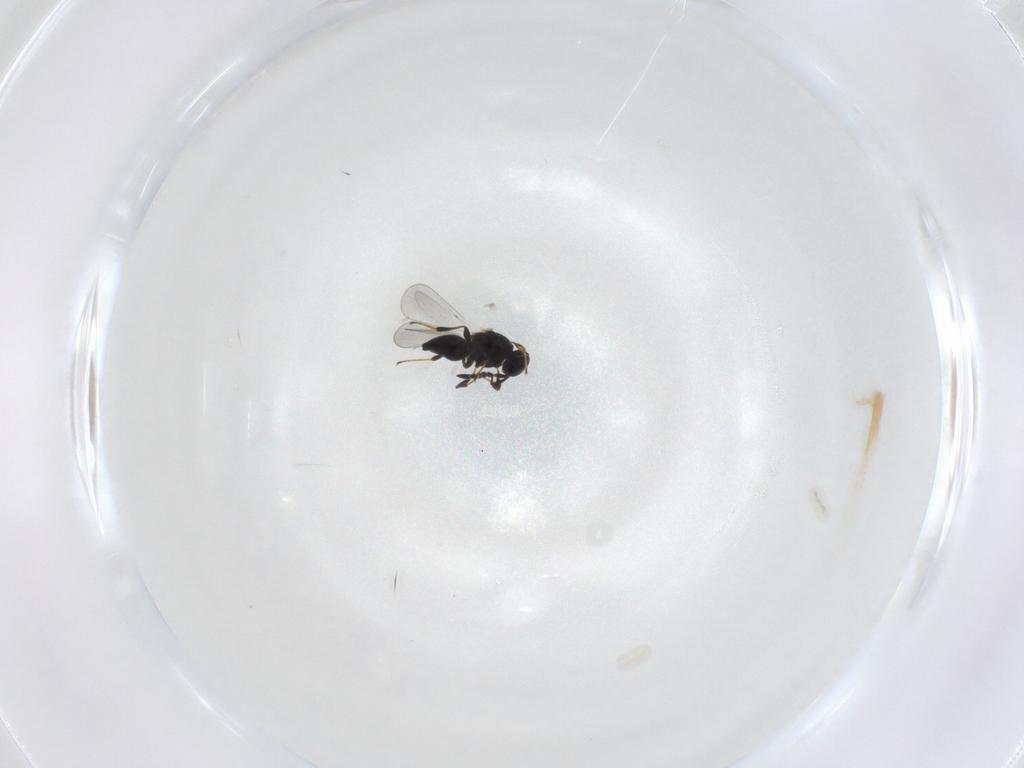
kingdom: Animalia
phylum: Arthropoda
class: Insecta
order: Hymenoptera
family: Platygastridae
